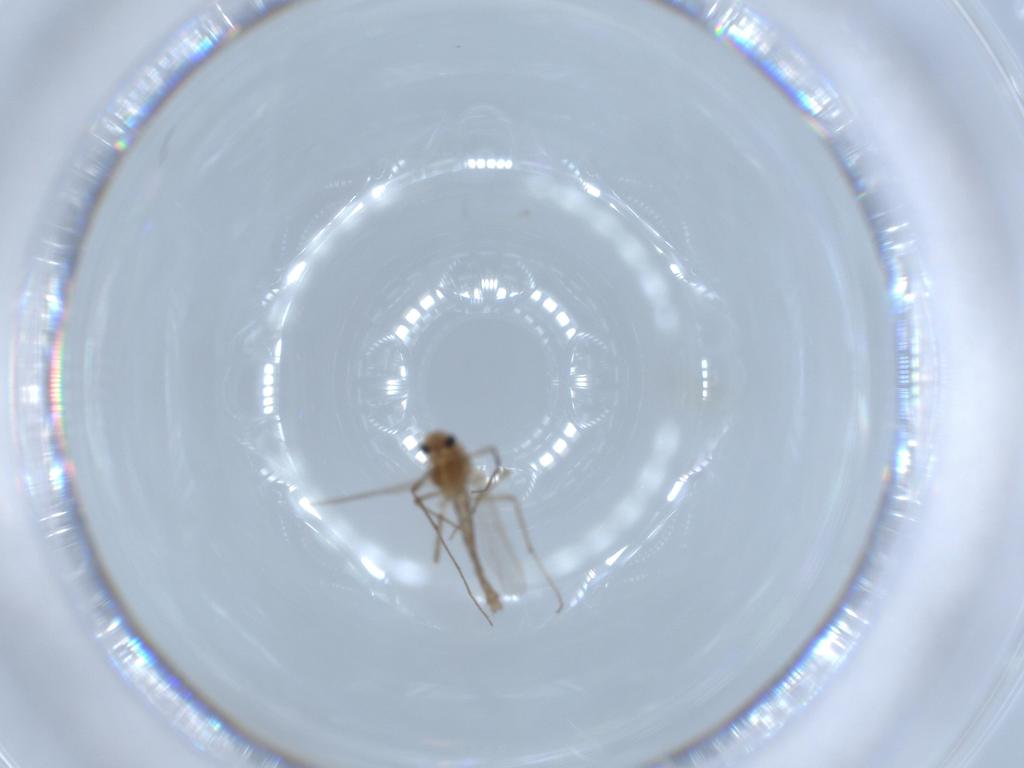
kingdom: Animalia
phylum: Arthropoda
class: Insecta
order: Diptera
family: Chironomidae
